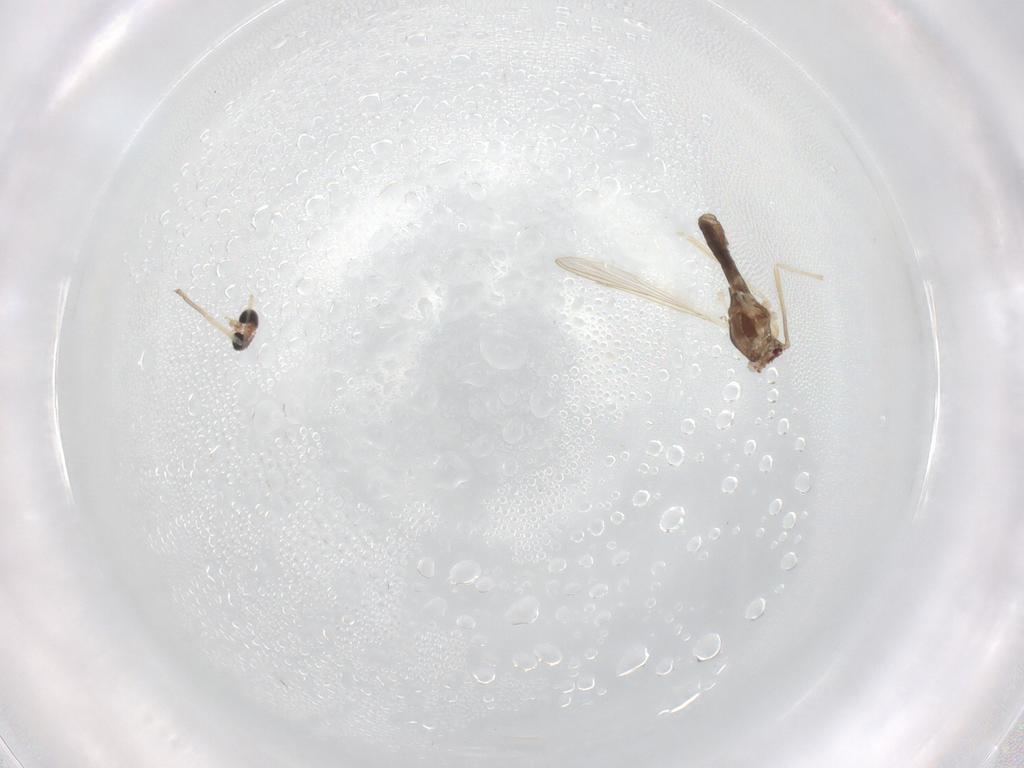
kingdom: Animalia
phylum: Arthropoda
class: Insecta
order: Diptera
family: Chironomidae
